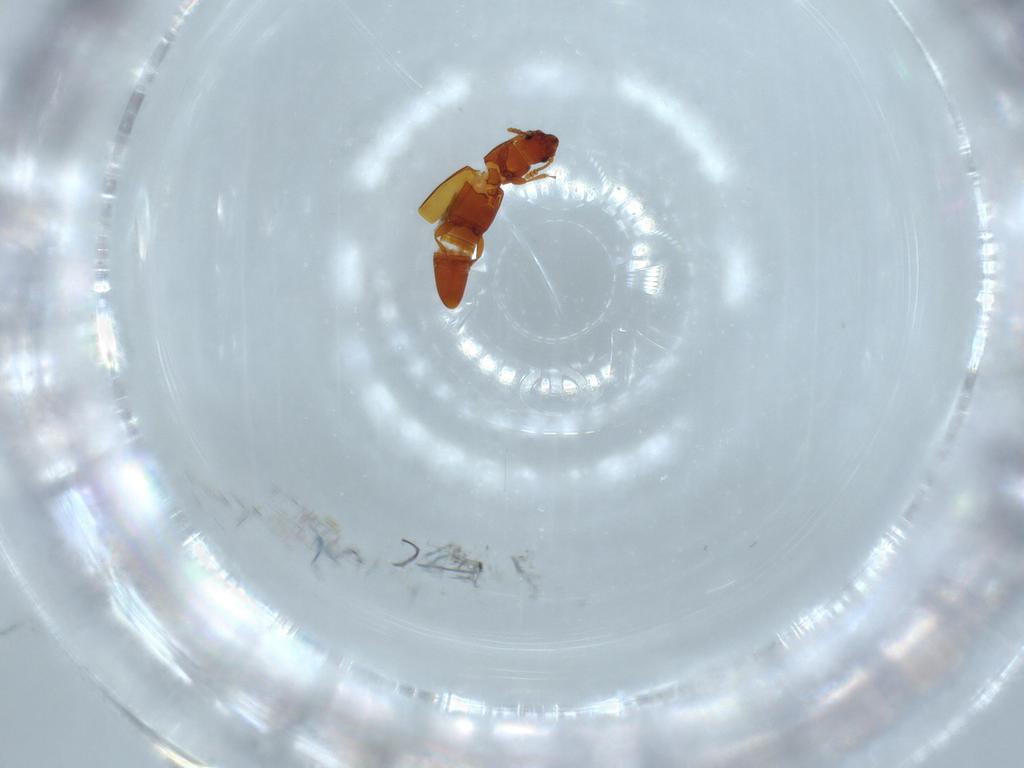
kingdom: Animalia
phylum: Arthropoda
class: Insecta
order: Coleoptera
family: Smicripidae
